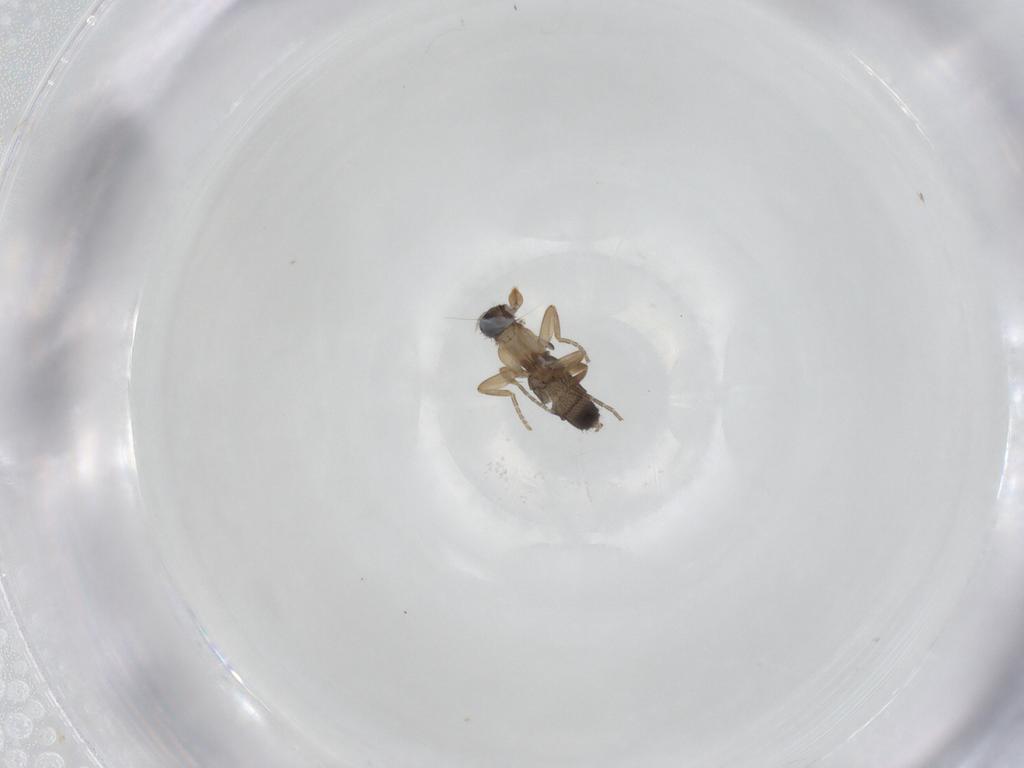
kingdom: Animalia
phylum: Arthropoda
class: Insecta
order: Diptera
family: Phoridae
